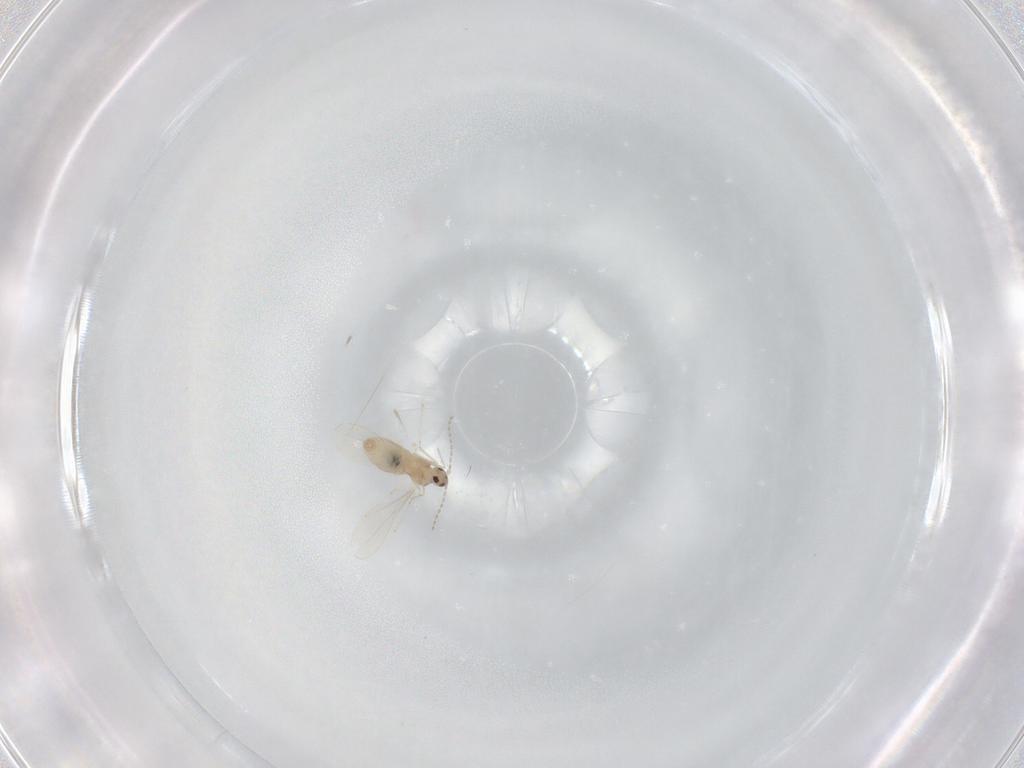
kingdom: Animalia
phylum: Arthropoda
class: Insecta
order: Diptera
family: Cecidomyiidae
